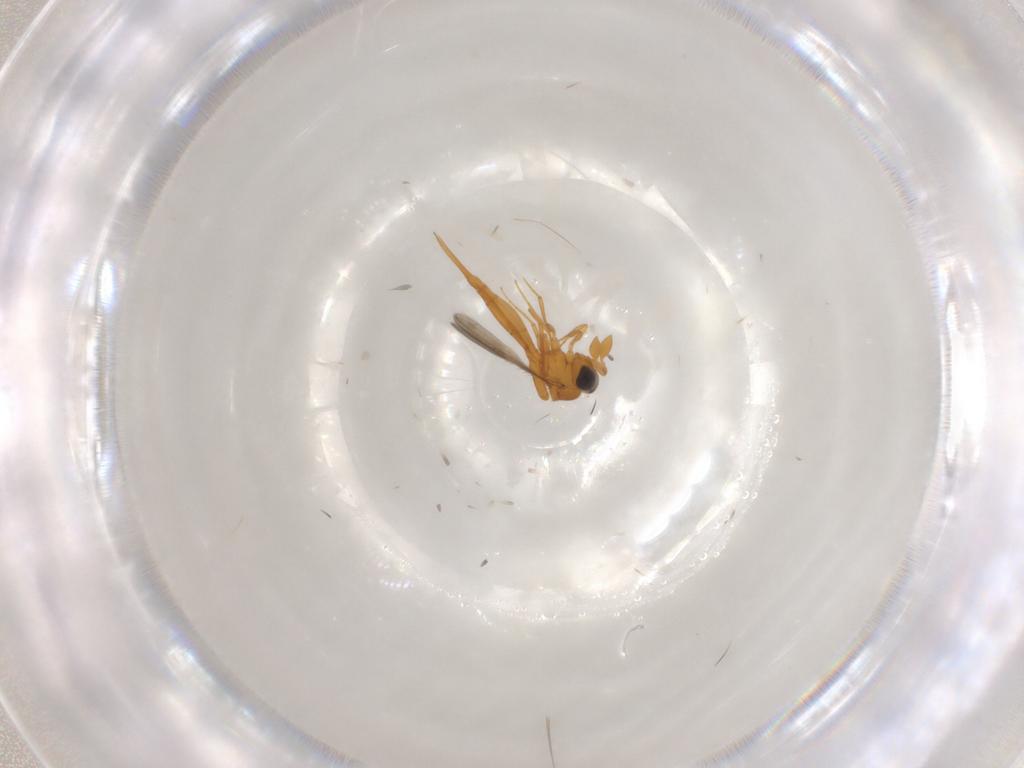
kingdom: Animalia
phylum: Arthropoda
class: Insecta
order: Hymenoptera
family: Scelionidae
